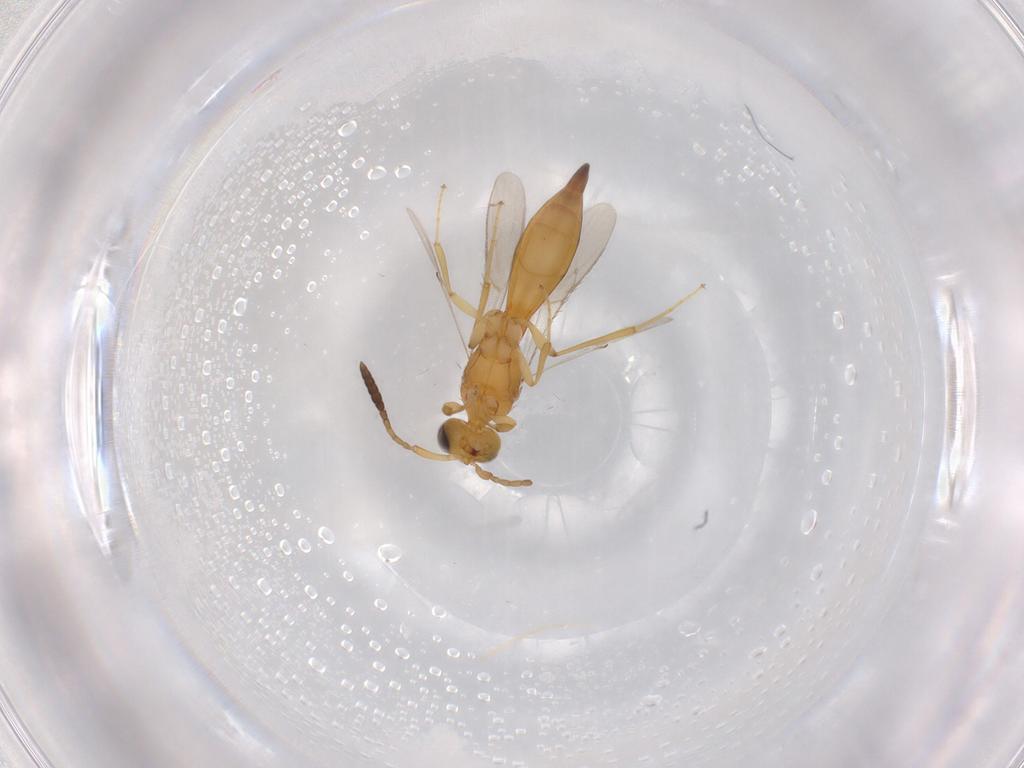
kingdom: Animalia
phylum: Arthropoda
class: Insecta
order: Hymenoptera
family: Scelionidae
